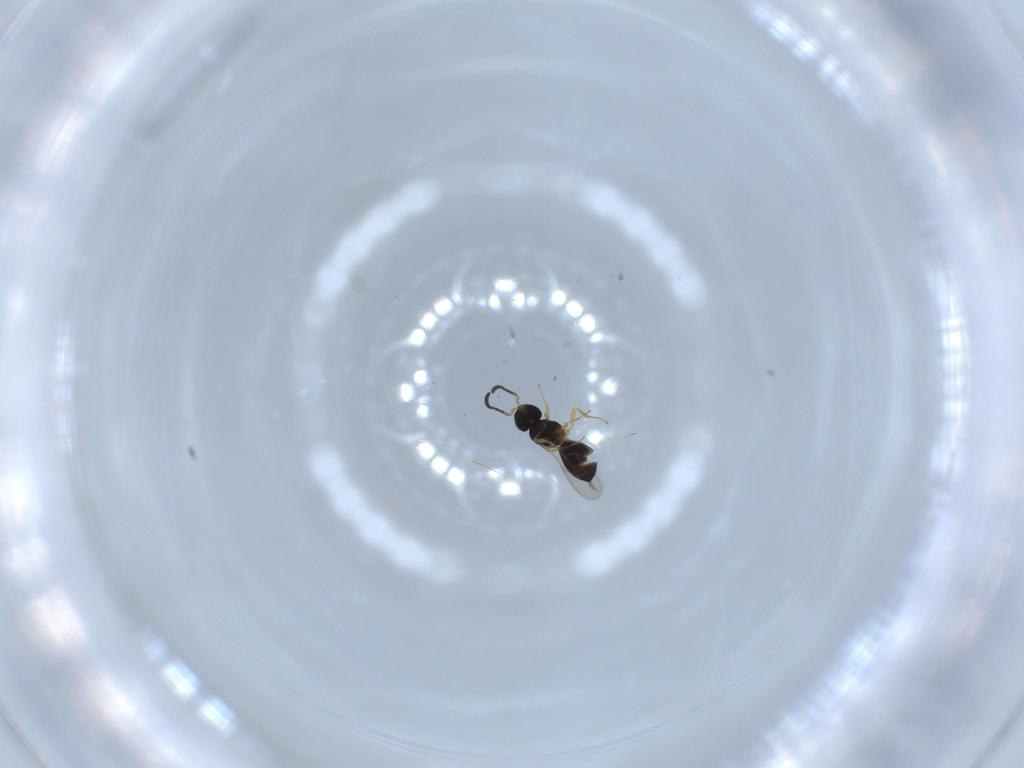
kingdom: Animalia
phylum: Arthropoda
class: Insecta
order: Hymenoptera
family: Scelionidae
